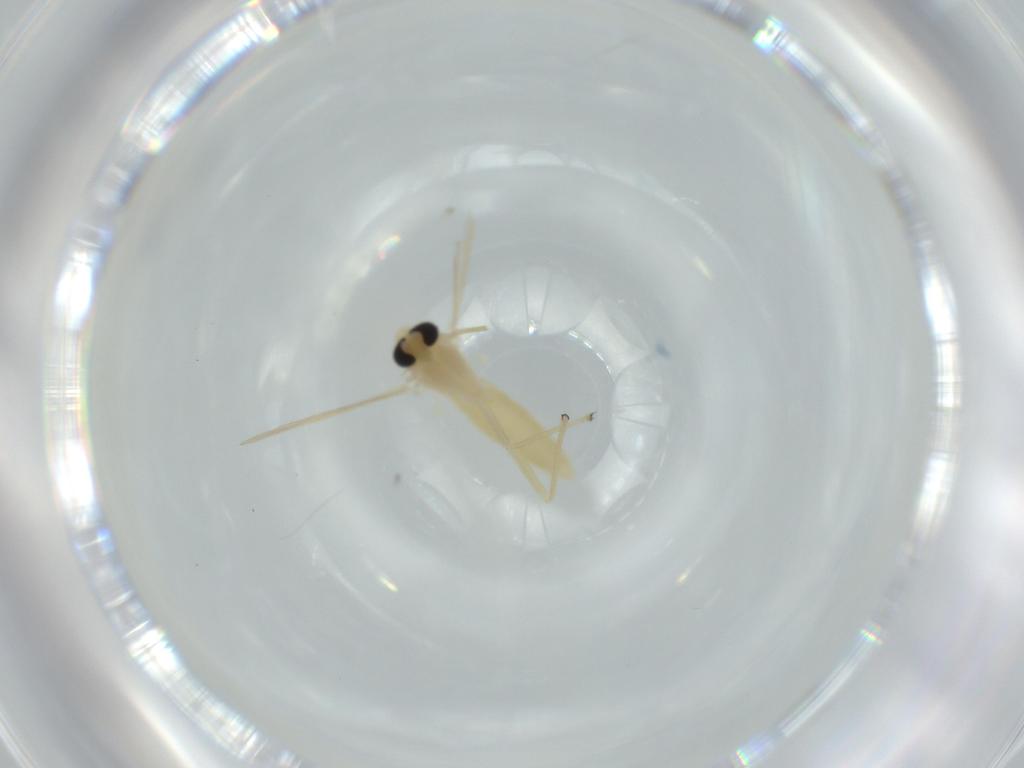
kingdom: Animalia
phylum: Arthropoda
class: Insecta
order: Diptera
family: Chironomidae
